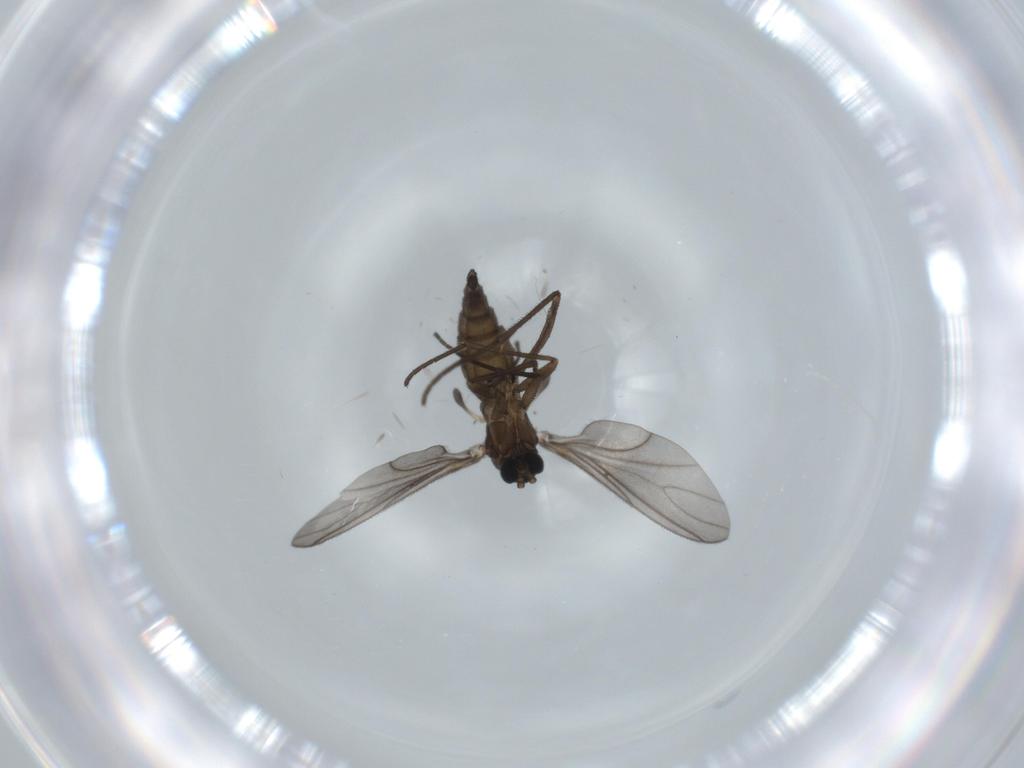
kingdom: Animalia
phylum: Arthropoda
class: Insecta
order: Diptera
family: Sciaridae
